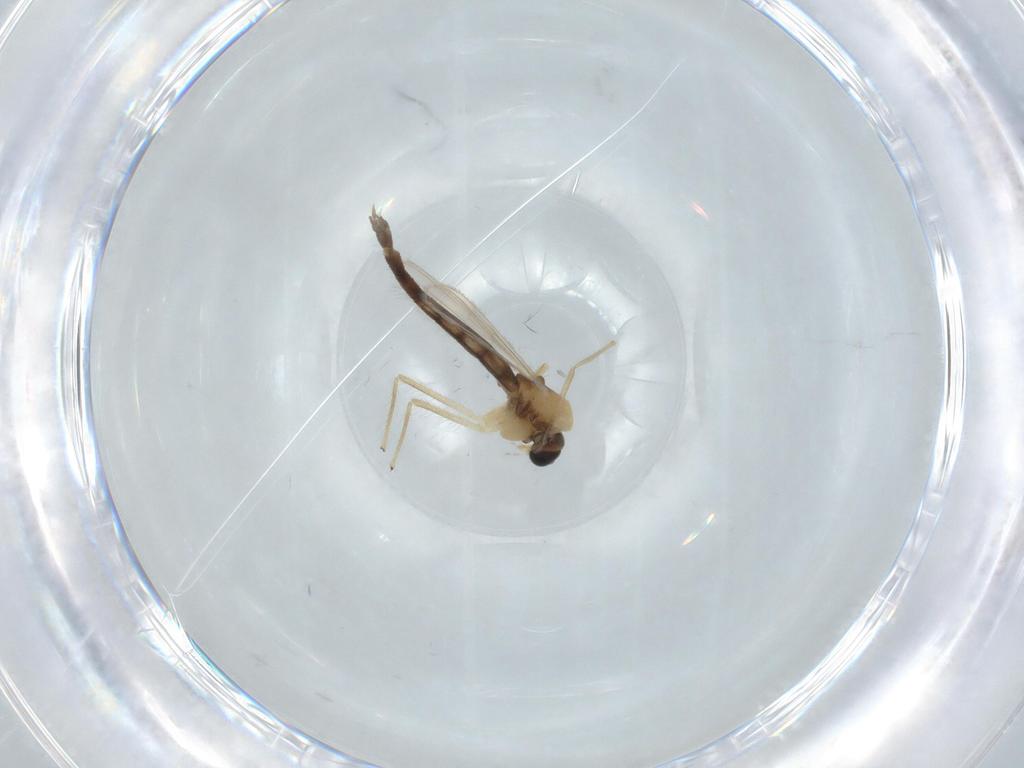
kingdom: Animalia
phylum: Arthropoda
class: Insecta
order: Diptera
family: Chironomidae
